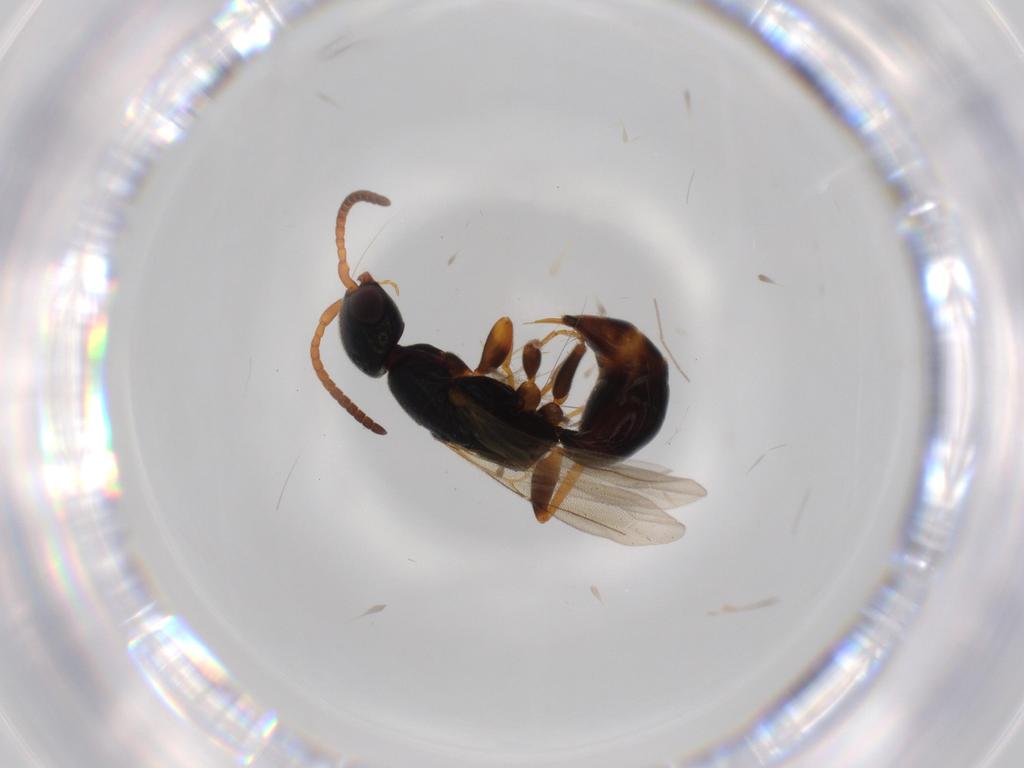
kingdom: Animalia
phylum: Arthropoda
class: Insecta
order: Hymenoptera
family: Bethylidae
